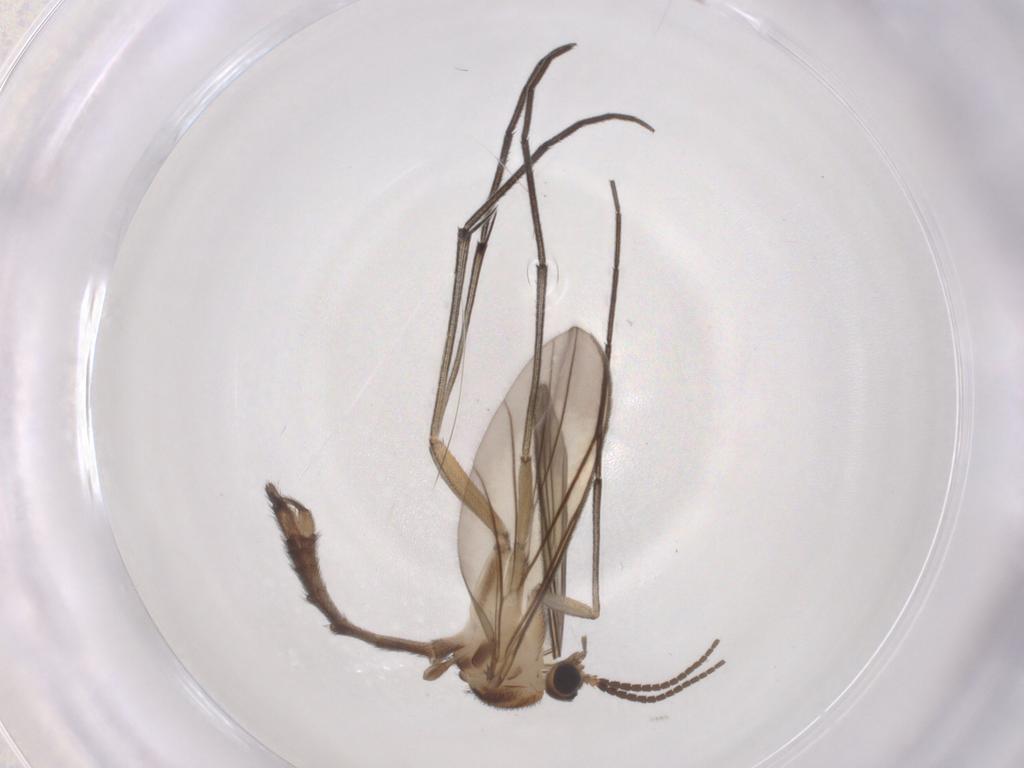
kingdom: Animalia
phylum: Arthropoda
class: Insecta
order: Diptera
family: Keroplatidae
